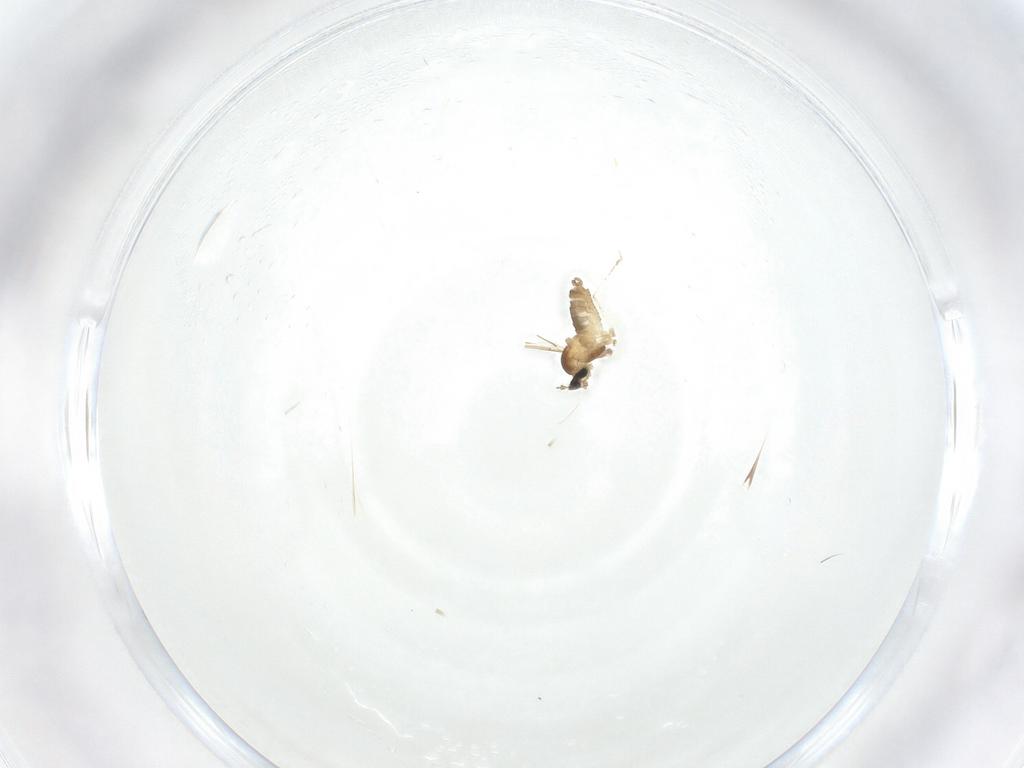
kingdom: Animalia
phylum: Arthropoda
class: Insecta
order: Diptera
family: Cecidomyiidae
